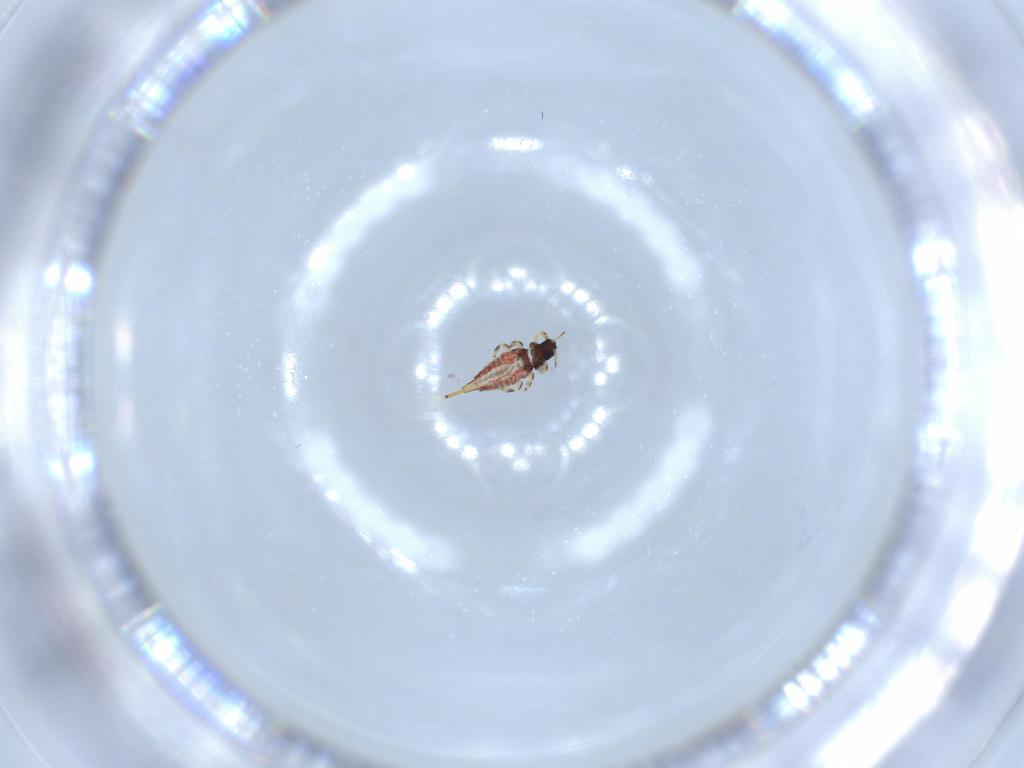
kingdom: Animalia
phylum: Arthropoda
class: Insecta
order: Thysanoptera
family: Phlaeothripidae
